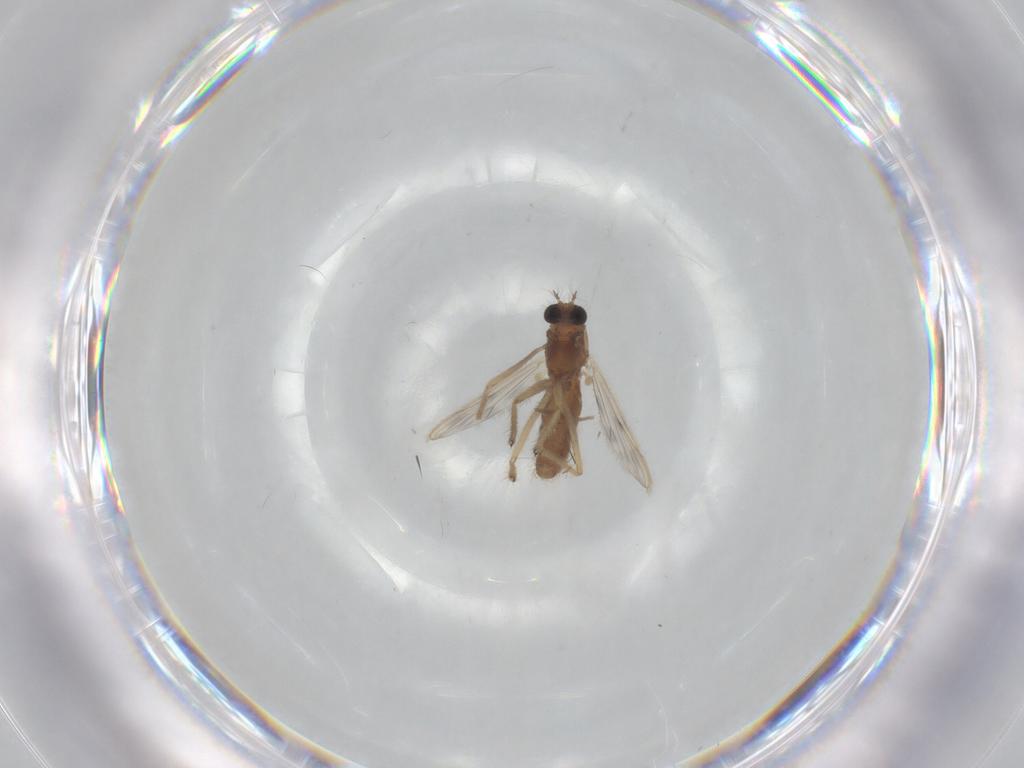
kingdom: Animalia
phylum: Arthropoda
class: Insecta
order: Diptera
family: Chironomidae
